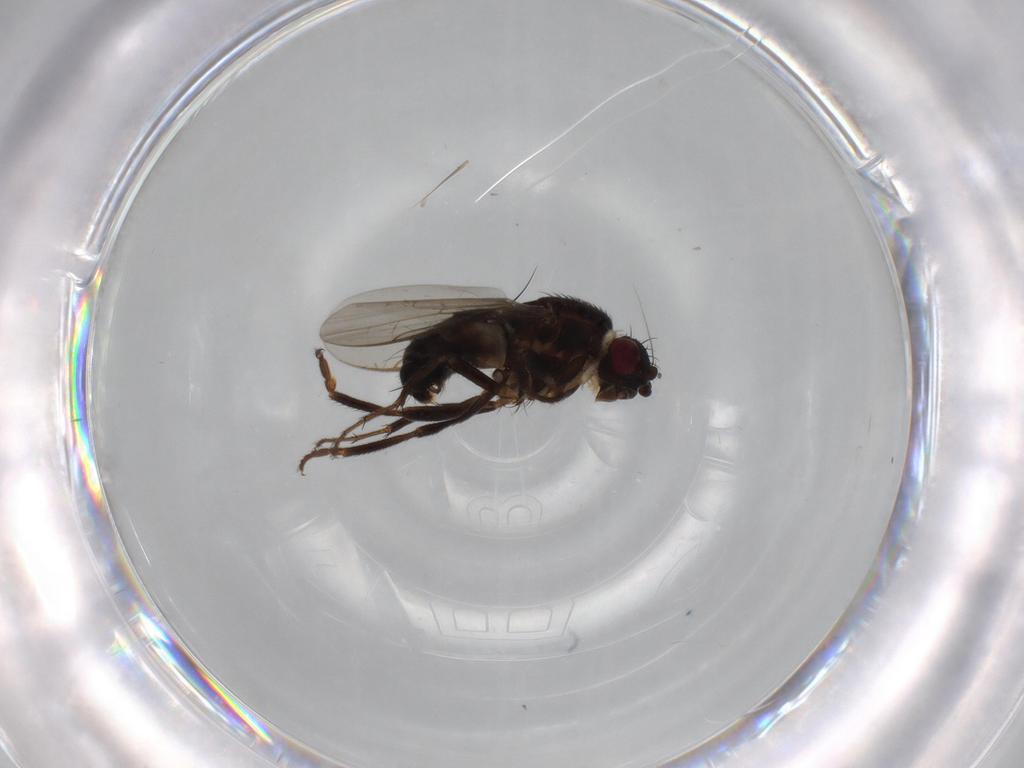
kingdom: Animalia
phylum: Arthropoda
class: Insecta
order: Diptera
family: Sphaeroceridae
